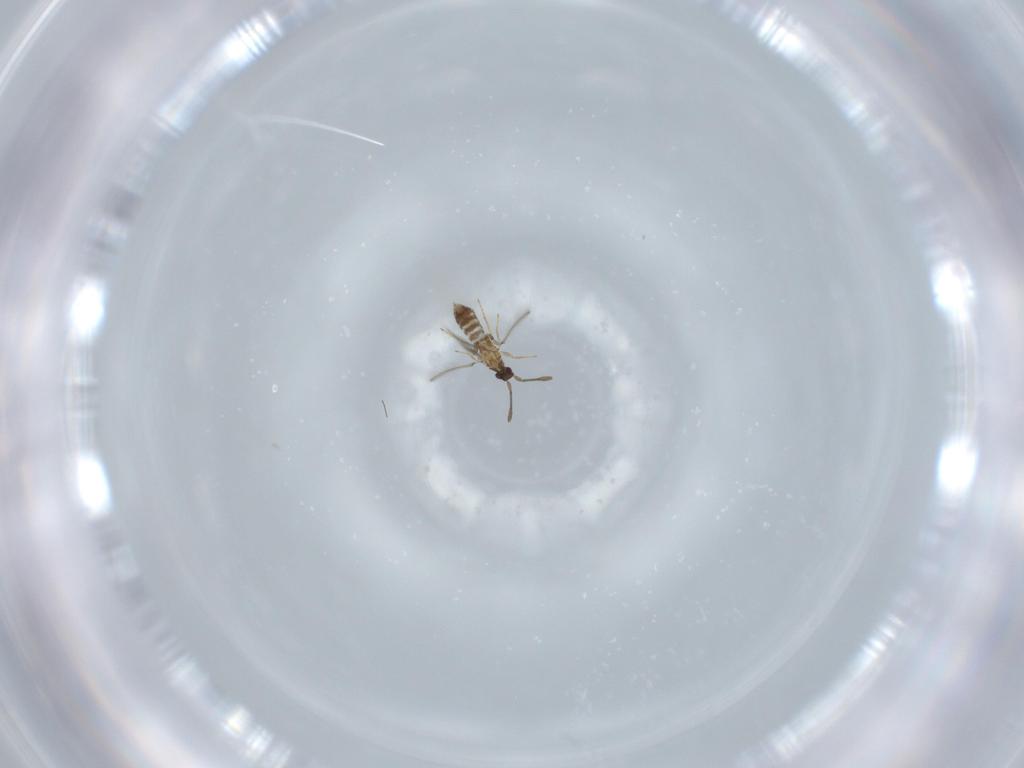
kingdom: Animalia
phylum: Arthropoda
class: Insecta
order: Hymenoptera
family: Vespidae
